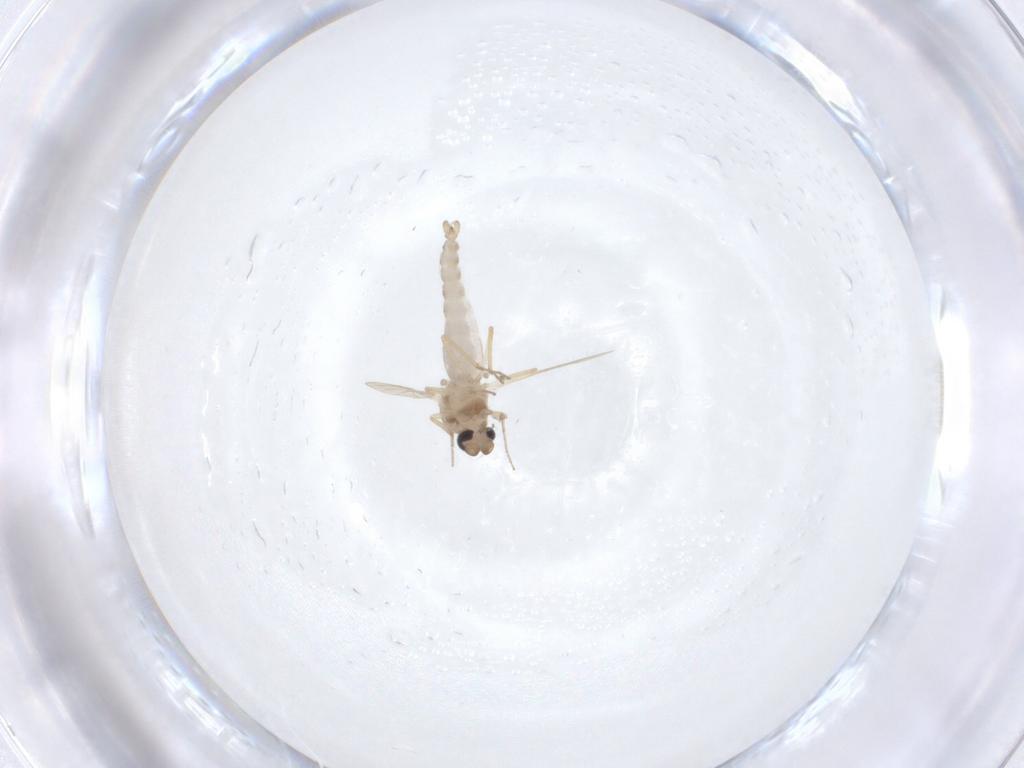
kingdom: Animalia
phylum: Arthropoda
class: Insecta
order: Diptera
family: Ceratopogonidae
